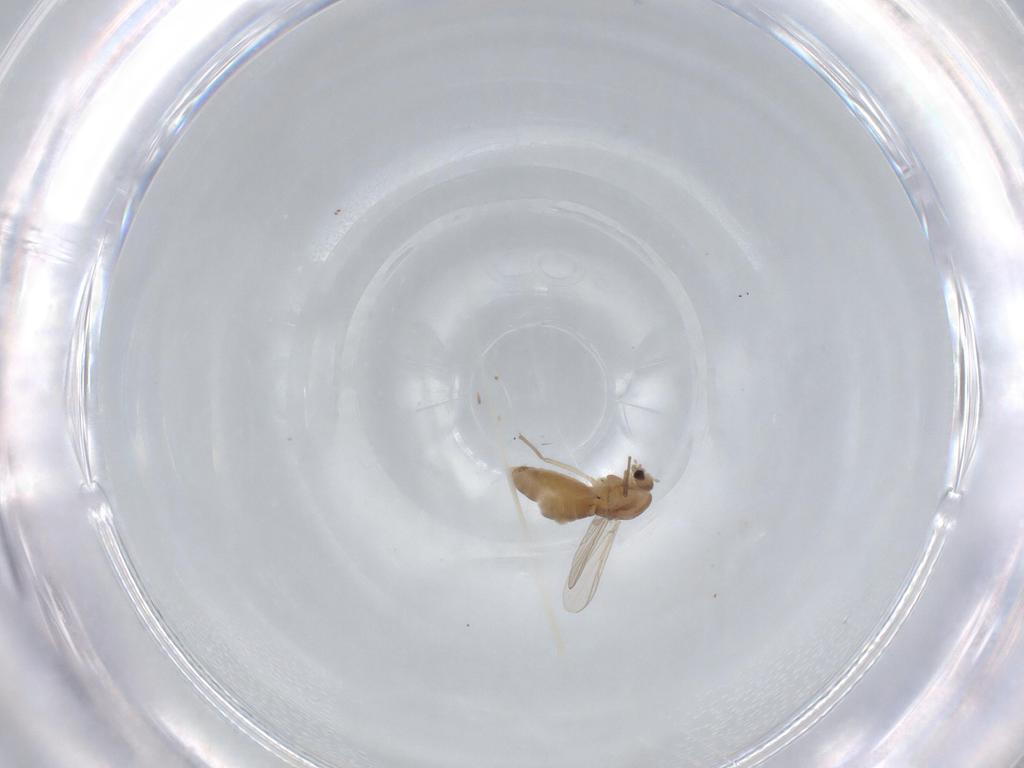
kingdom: Animalia
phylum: Arthropoda
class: Insecta
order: Diptera
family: Chironomidae
